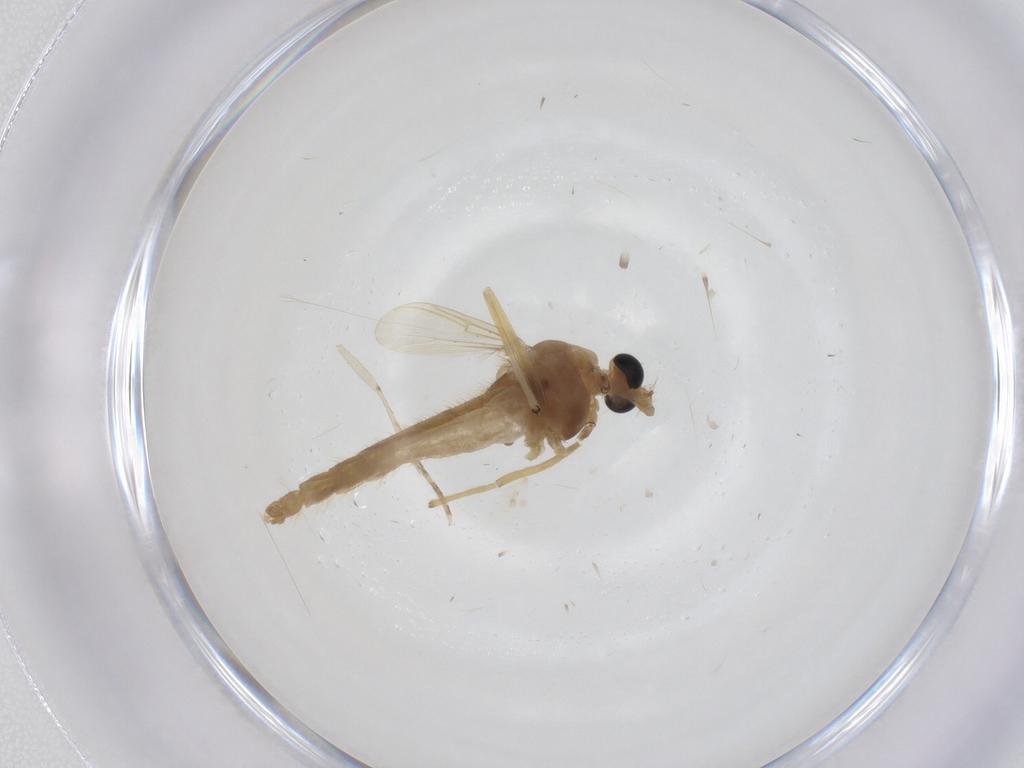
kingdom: Animalia
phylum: Arthropoda
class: Insecta
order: Diptera
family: Chironomidae
